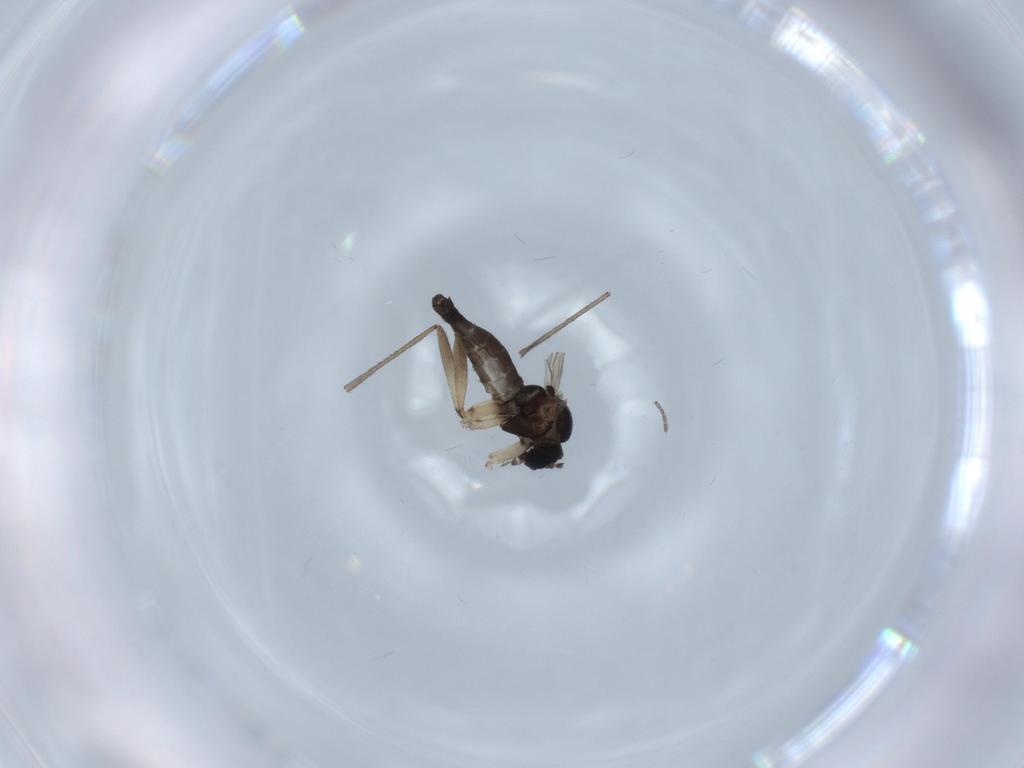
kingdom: Animalia
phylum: Arthropoda
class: Insecta
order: Diptera
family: Sciaridae
